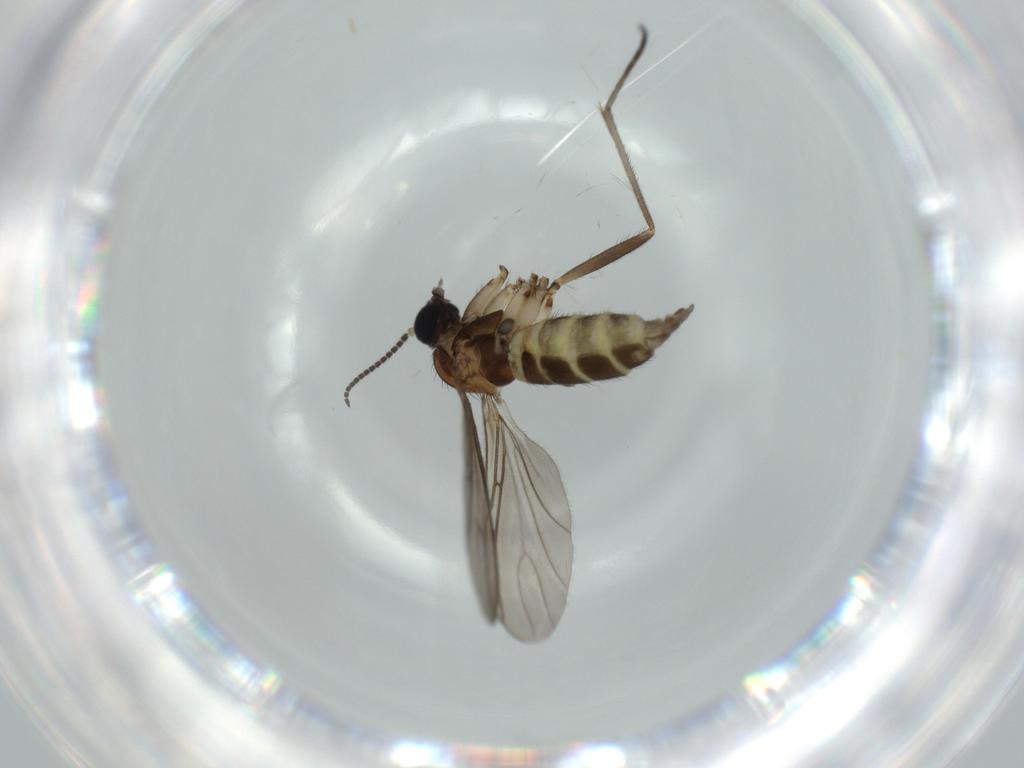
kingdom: Animalia
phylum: Arthropoda
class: Insecta
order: Diptera
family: Sciaridae
